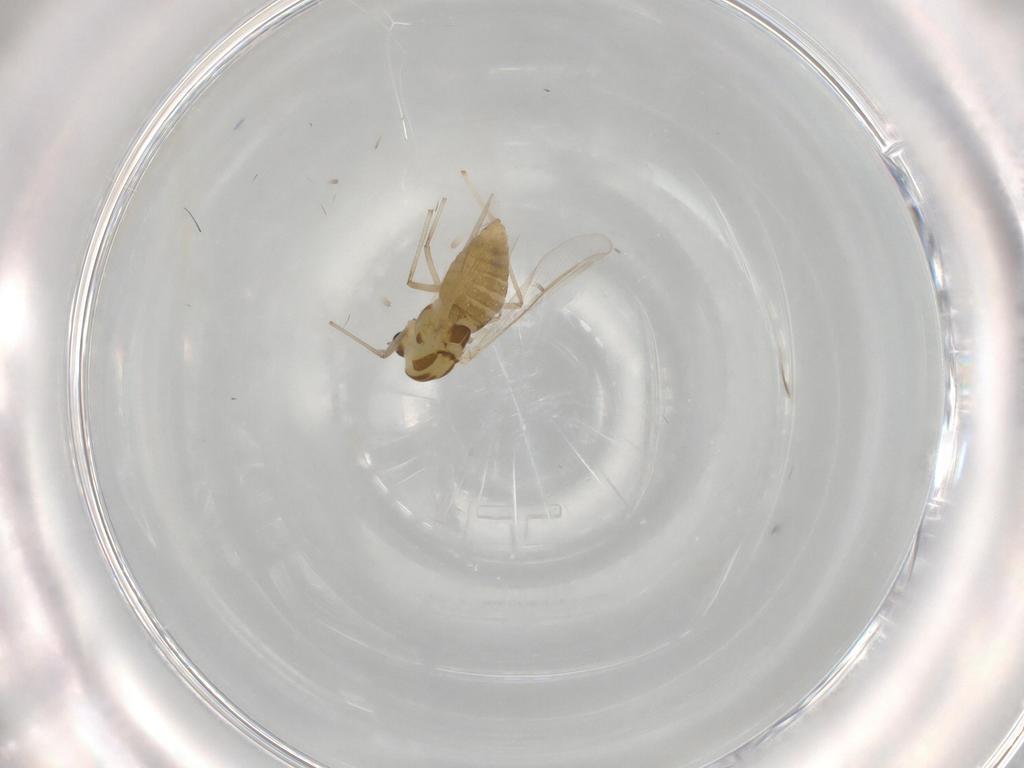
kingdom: Animalia
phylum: Arthropoda
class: Insecta
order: Diptera
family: Chironomidae
